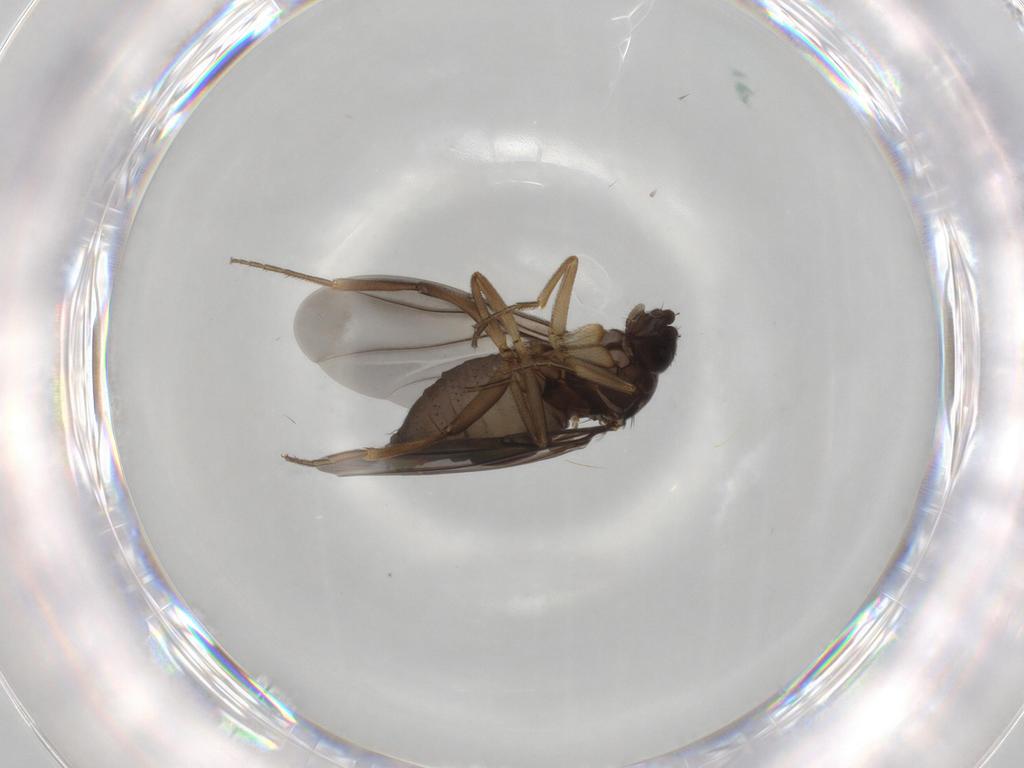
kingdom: Animalia
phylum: Arthropoda
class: Insecta
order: Diptera
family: Phoridae
